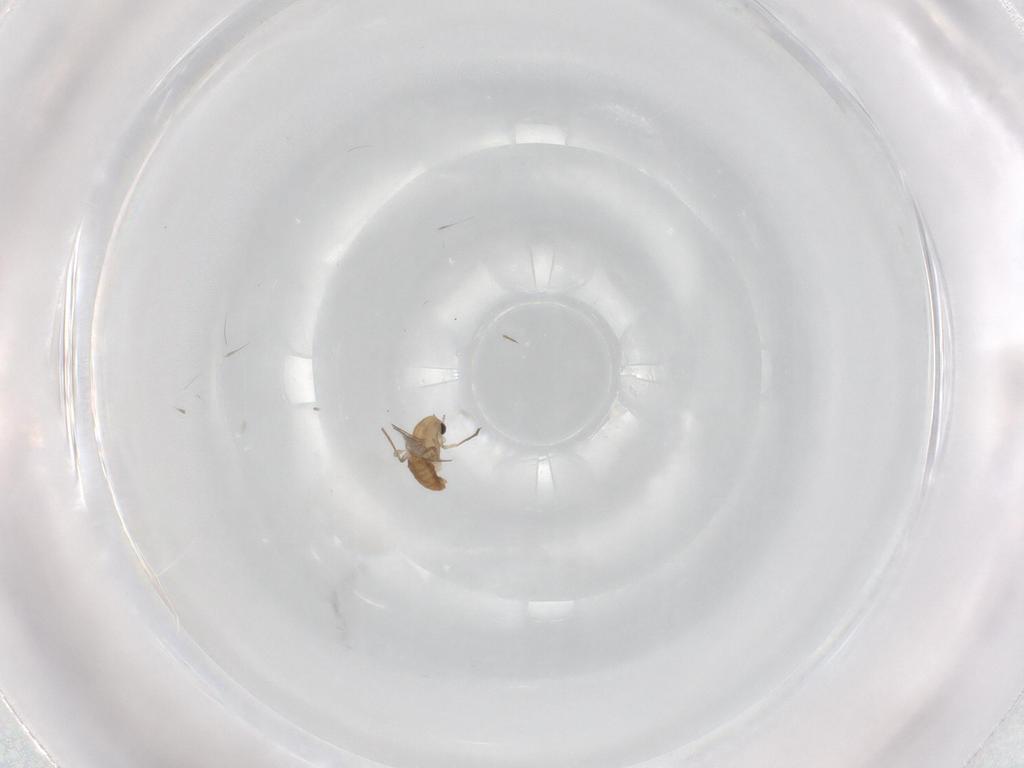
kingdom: Animalia
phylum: Arthropoda
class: Insecta
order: Diptera
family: Chironomidae
